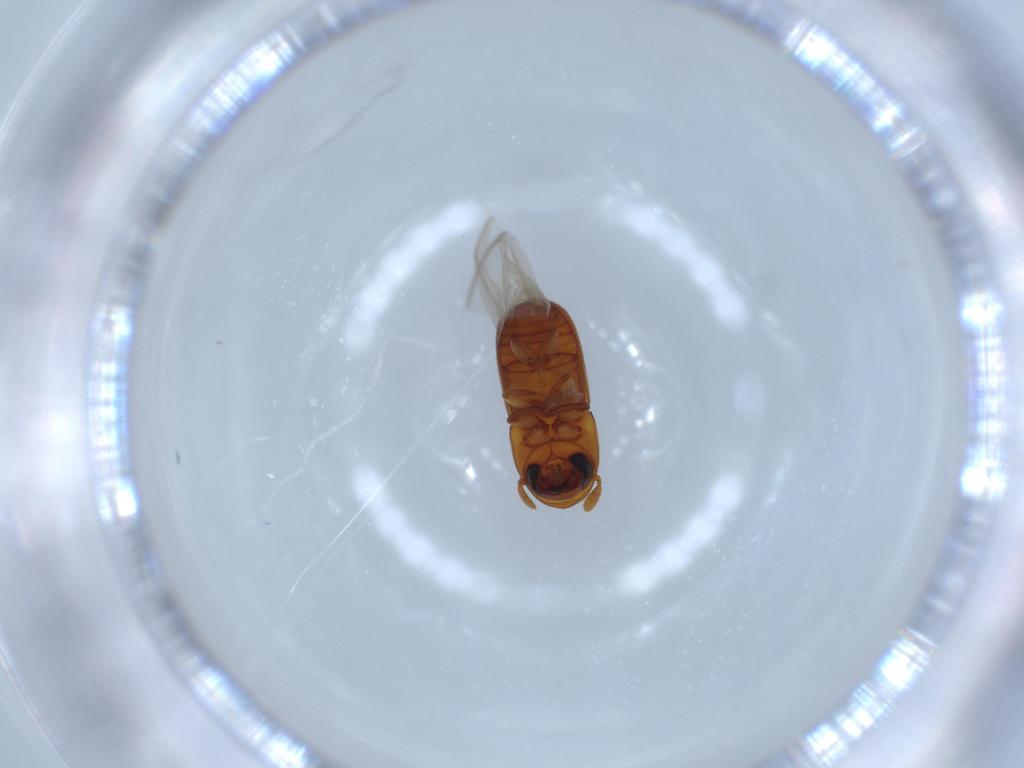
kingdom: Animalia
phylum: Arthropoda
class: Insecta
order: Coleoptera
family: Curculionidae
